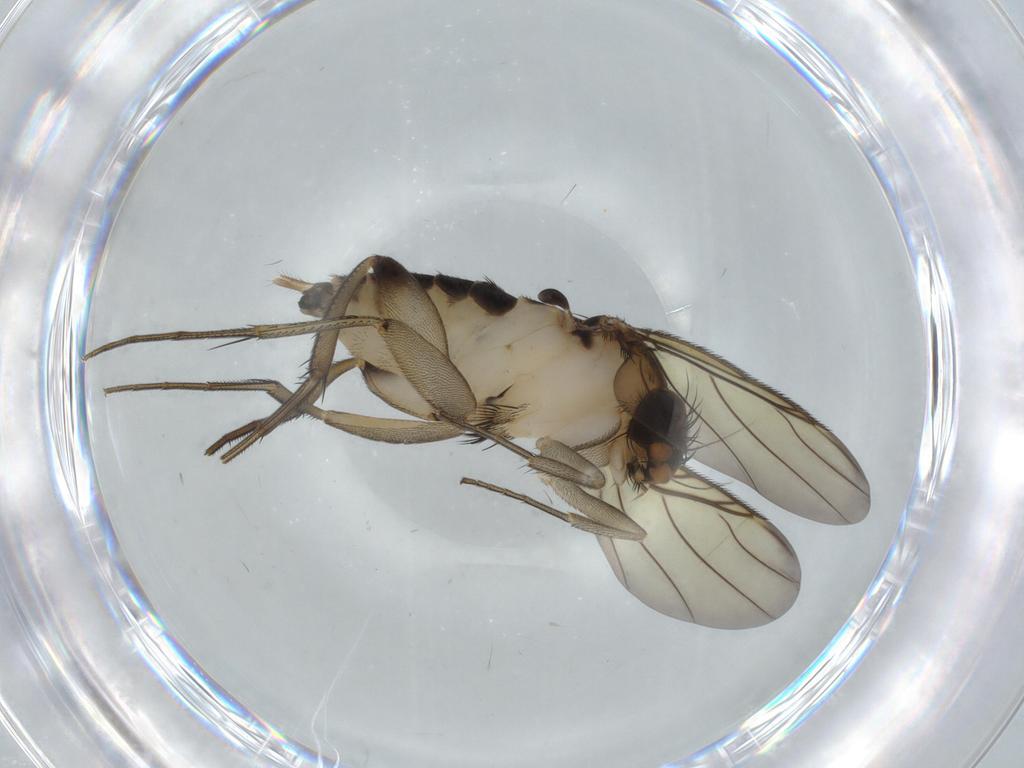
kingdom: Animalia
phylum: Arthropoda
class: Insecta
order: Diptera
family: Phoridae
